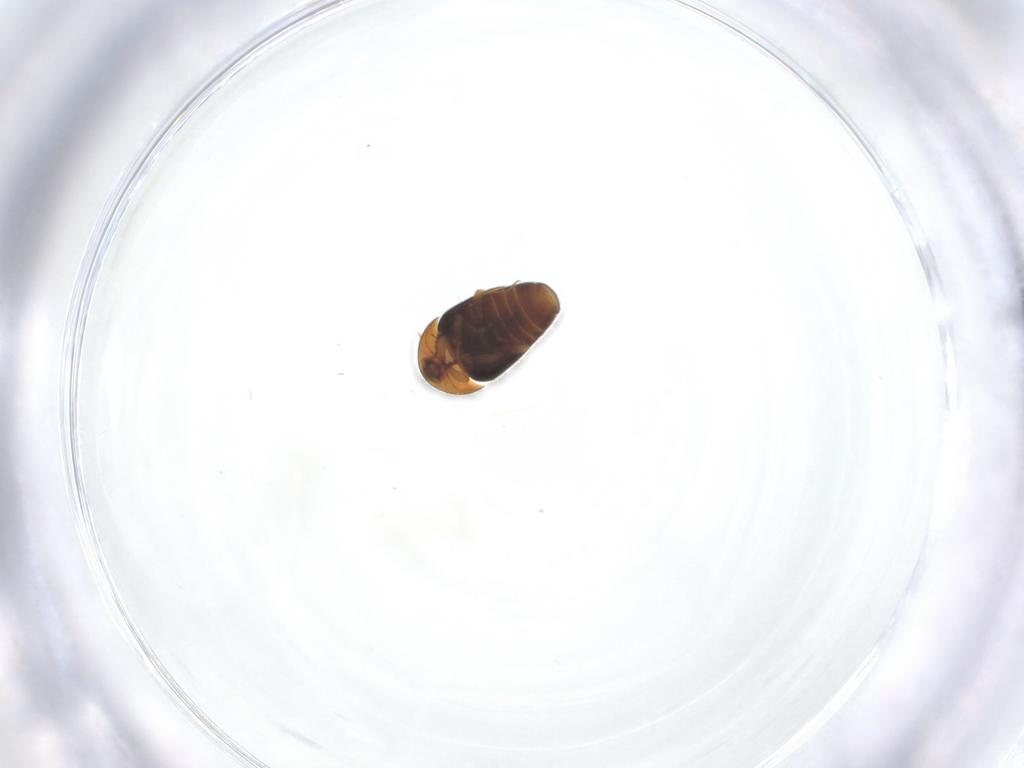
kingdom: Animalia
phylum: Arthropoda
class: Insecta
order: Coleoptera
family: Corylophidae
